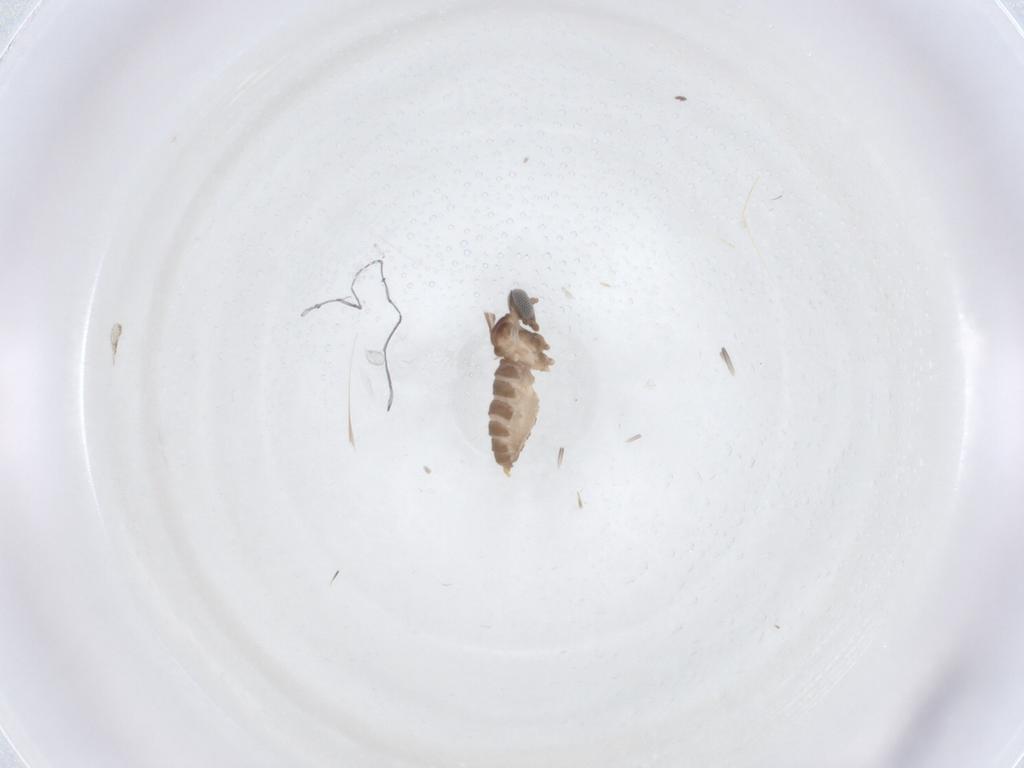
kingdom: Animalia
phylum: Arthropoda
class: Insecta
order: Diptera
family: Cecidomyiidae
